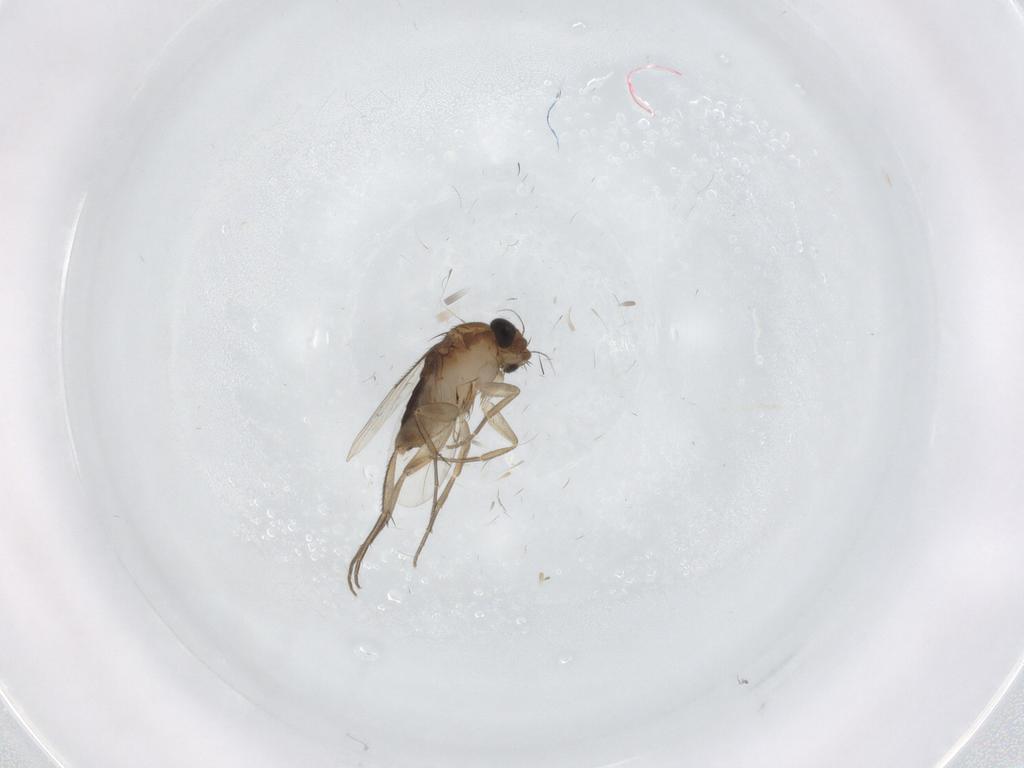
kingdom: Animalia
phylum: Arthropoda
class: Insecta
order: Diptera
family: Phoridae
